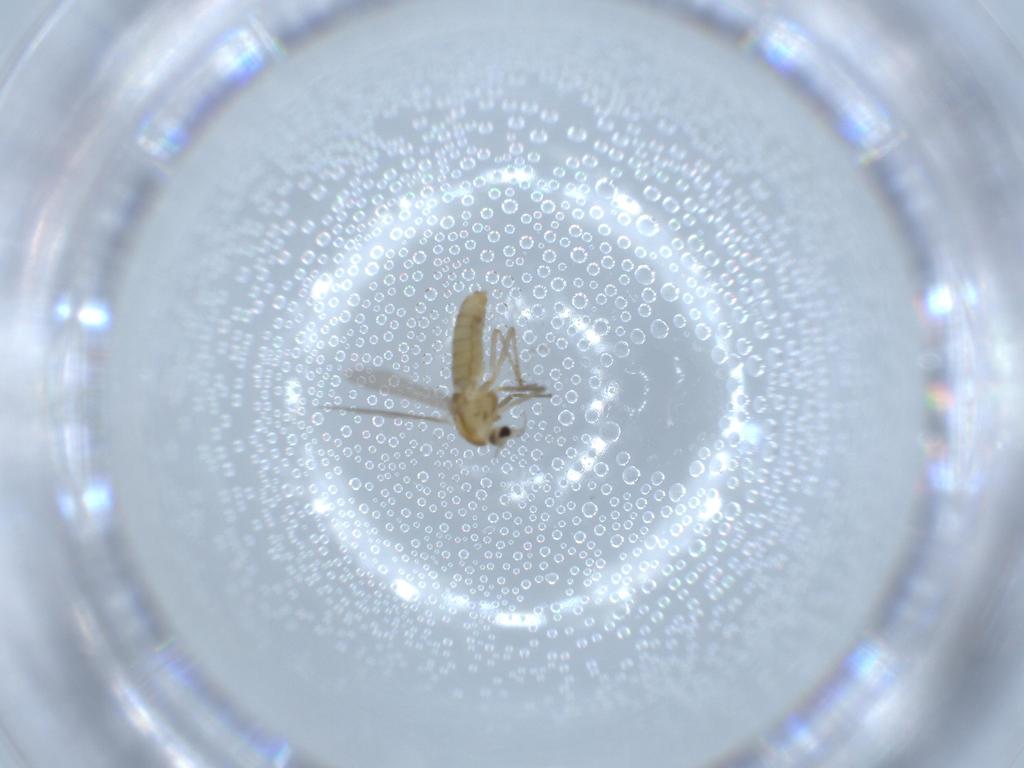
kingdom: Animalia
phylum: Arthropoda
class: Insecta
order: Diptera
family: Chironomidae
